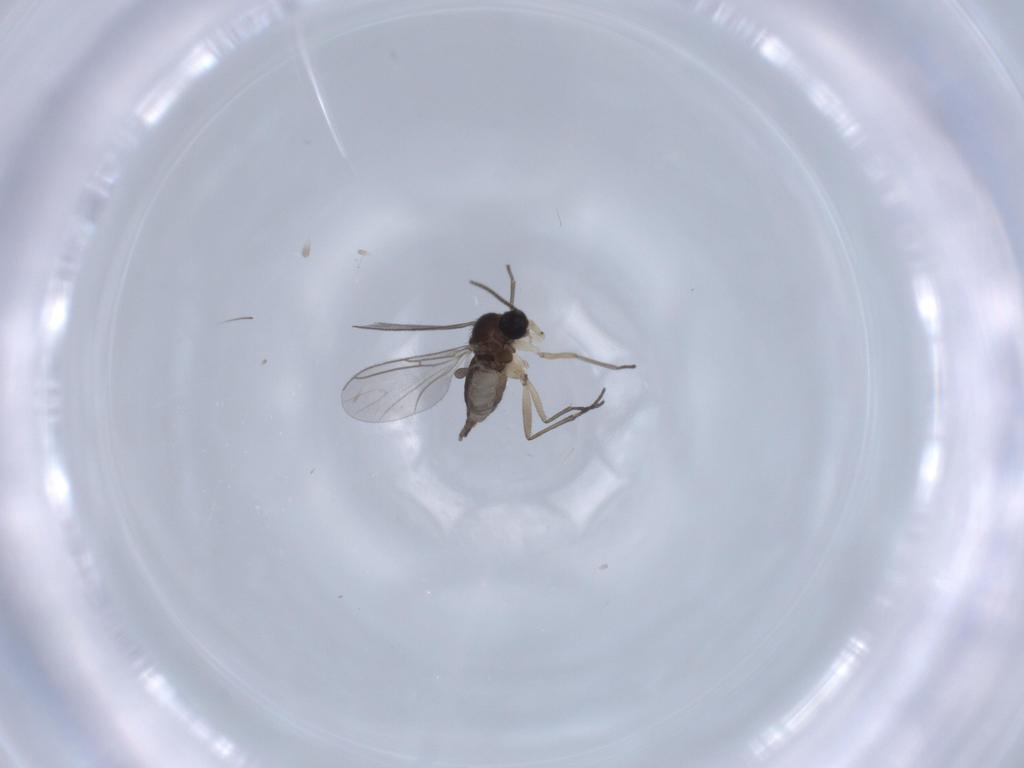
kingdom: Animalia
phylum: Arthropoda
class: Insecta
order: Diptera
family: Sciaridae
